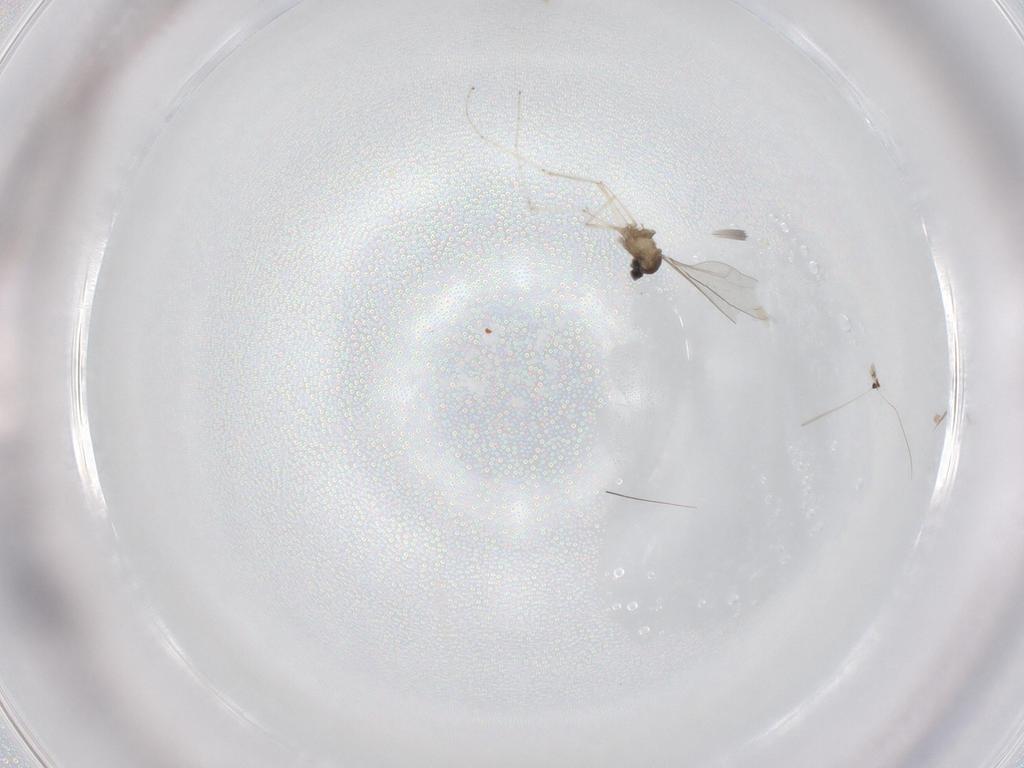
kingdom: Animalia
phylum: Arthropoda
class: Insecta
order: Diptera
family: Cecidomyiidae
